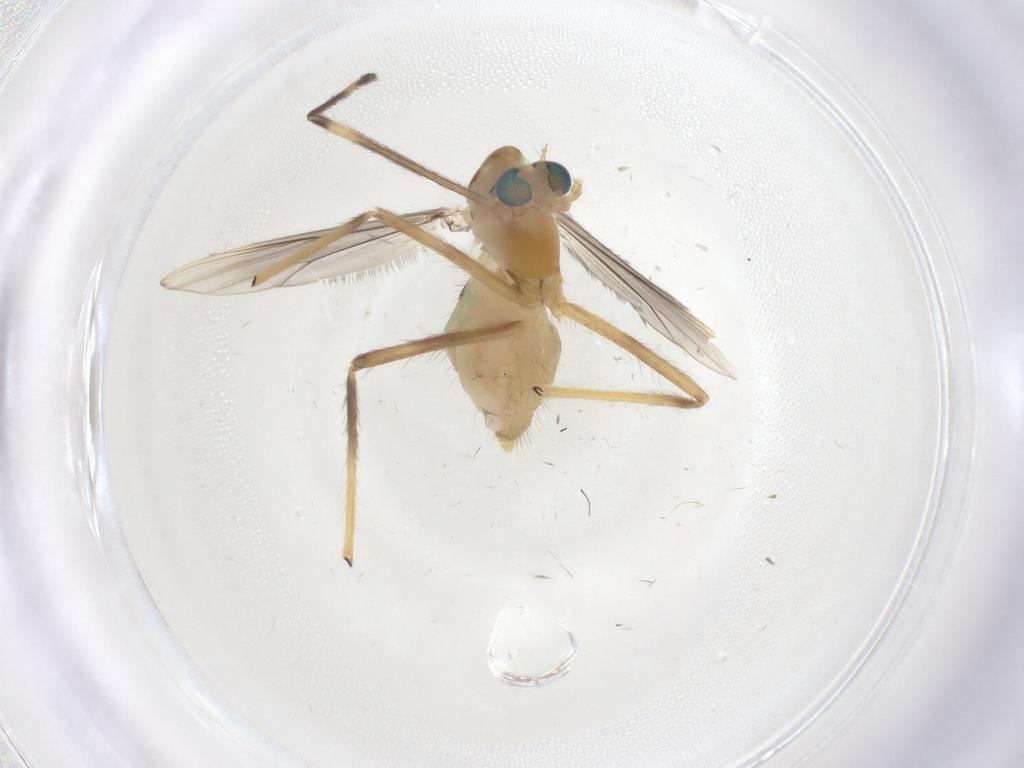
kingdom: Animalia
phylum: Arthropoda
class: Insecta
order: Diptera
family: Chironomidae
